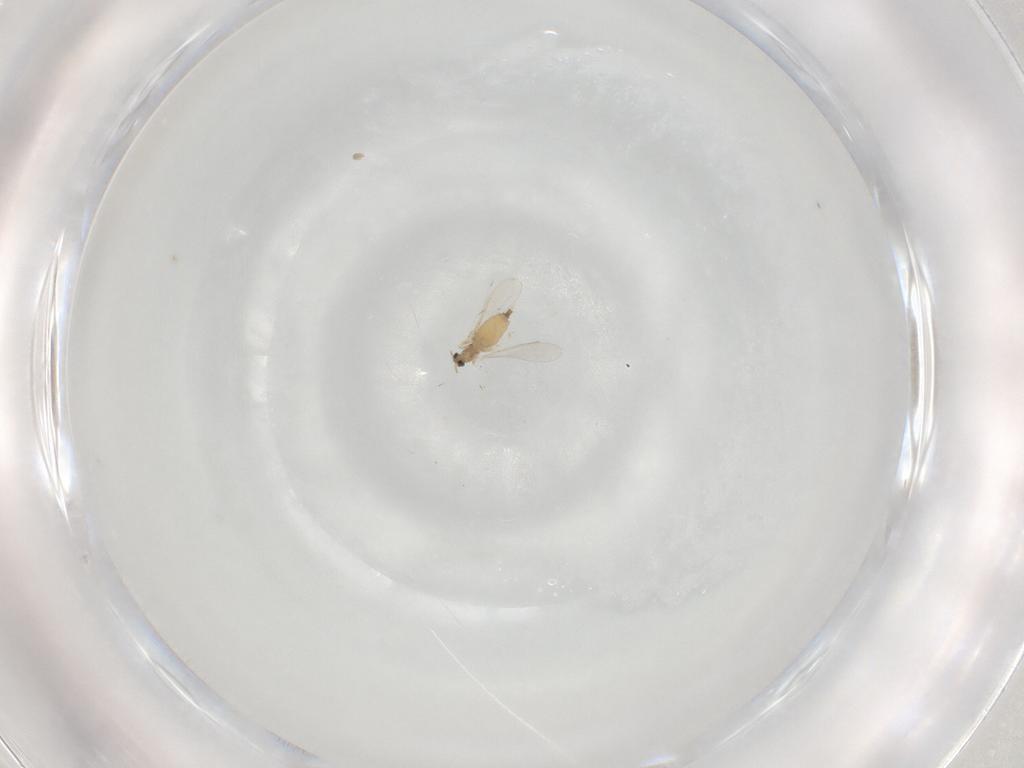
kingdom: Animalia
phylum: Arthropoda
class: Insecta
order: Diptera
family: Cecidomyiidae
